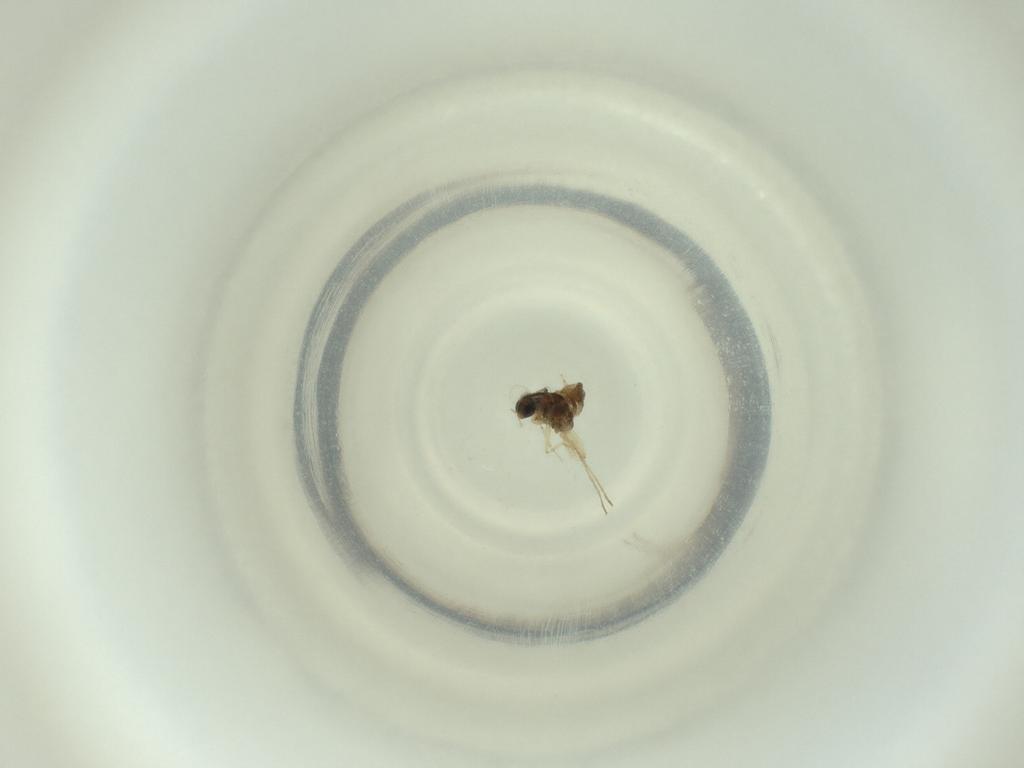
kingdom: Animalia
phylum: Arthropoda
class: Insecta
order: Diptera
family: Cecidomyiidae
